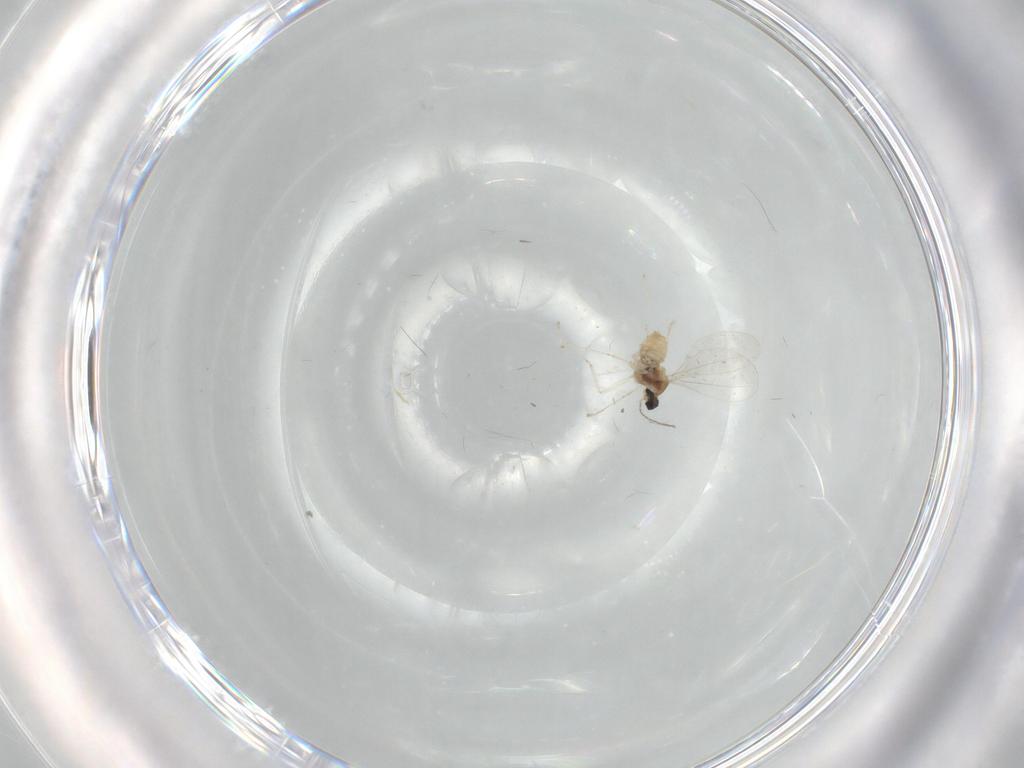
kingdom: Animalia
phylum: Arthropoda
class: Insecta
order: Diptera
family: Cecidomyiidae
